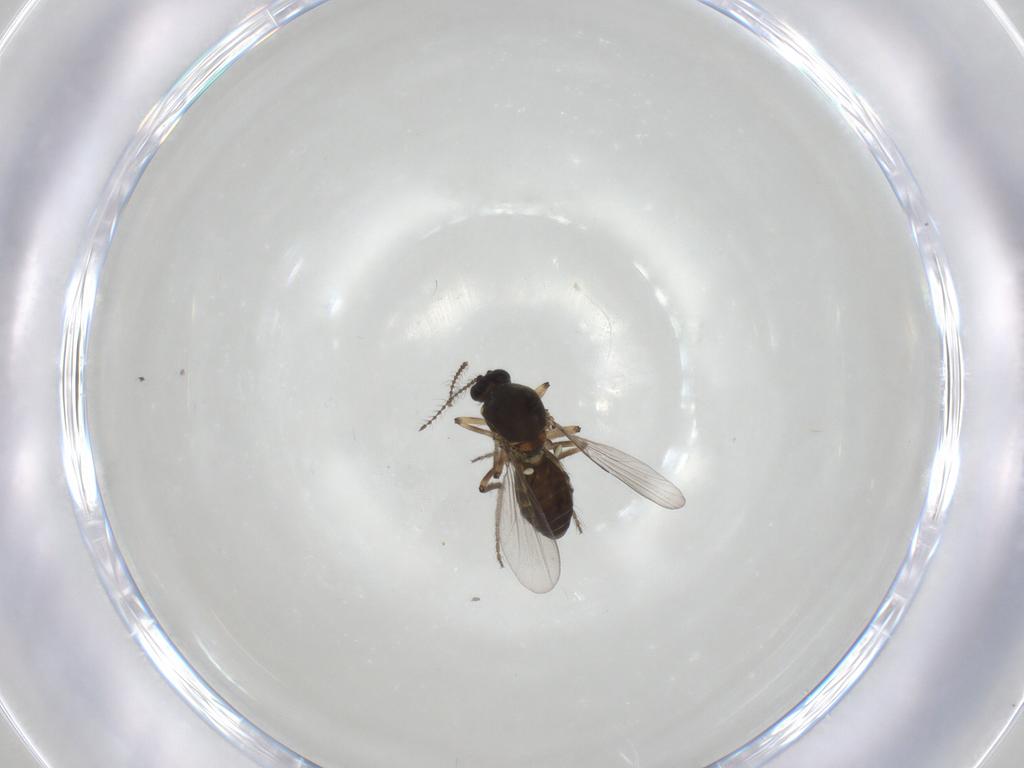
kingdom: Animalia
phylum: Arthropoda
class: Insecta
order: Diptera
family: Ceratopogonidae
